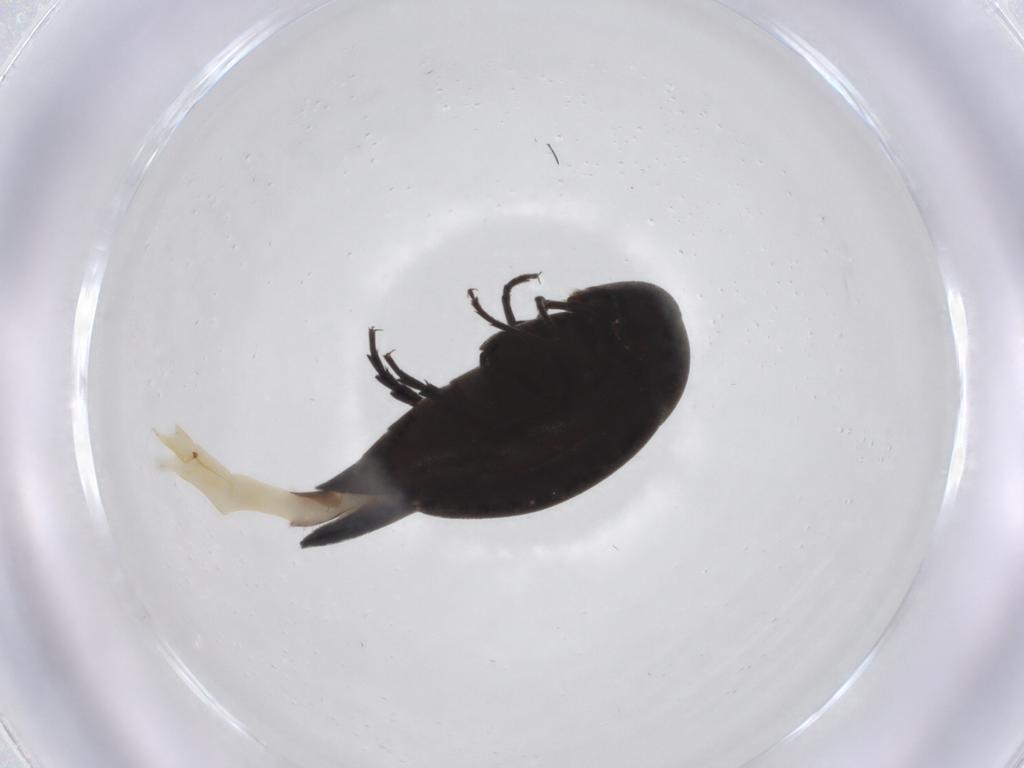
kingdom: Animalia
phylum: Arthropoda
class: Insecta
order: Coleoptera
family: Mordellidae
